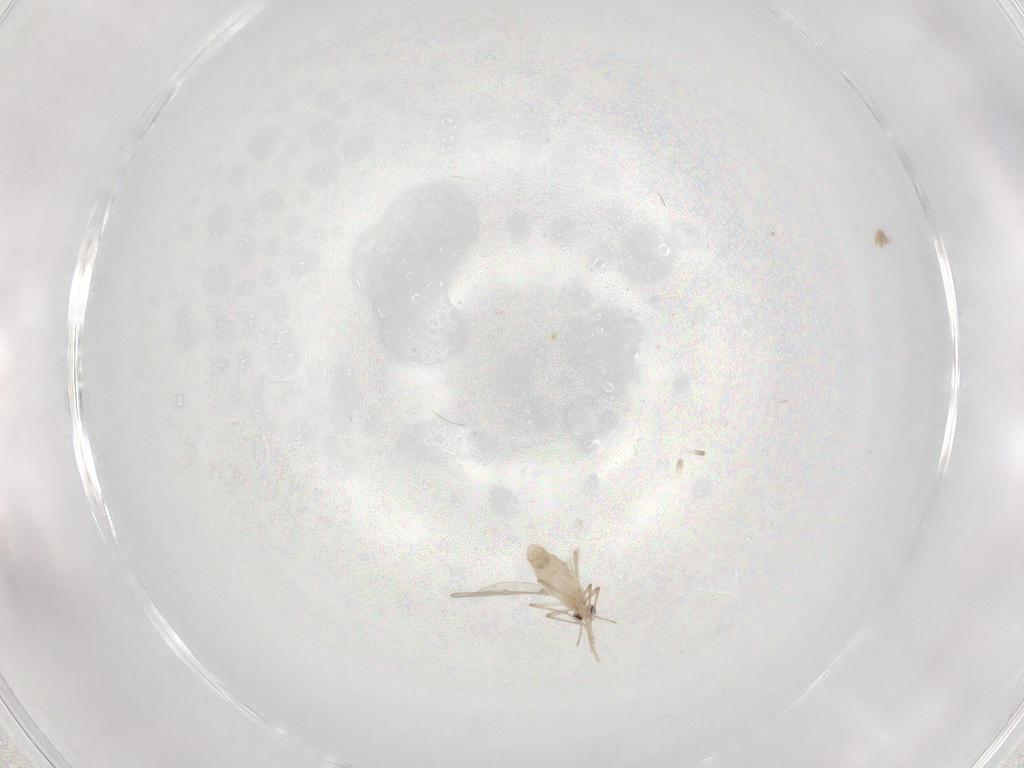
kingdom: Animalia
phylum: Arthropoda
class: Insecta
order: Diptera
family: Chironomidae
